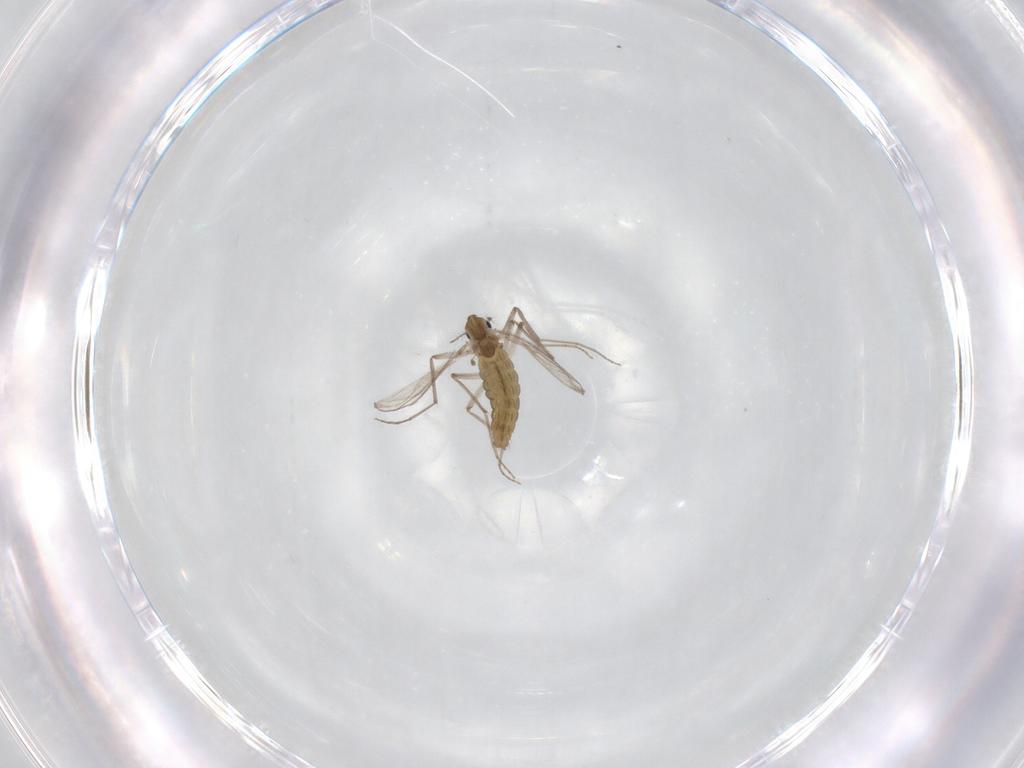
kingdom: Animalia
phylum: Arthropoda
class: Insecta
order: Diptera
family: Chironomidae
